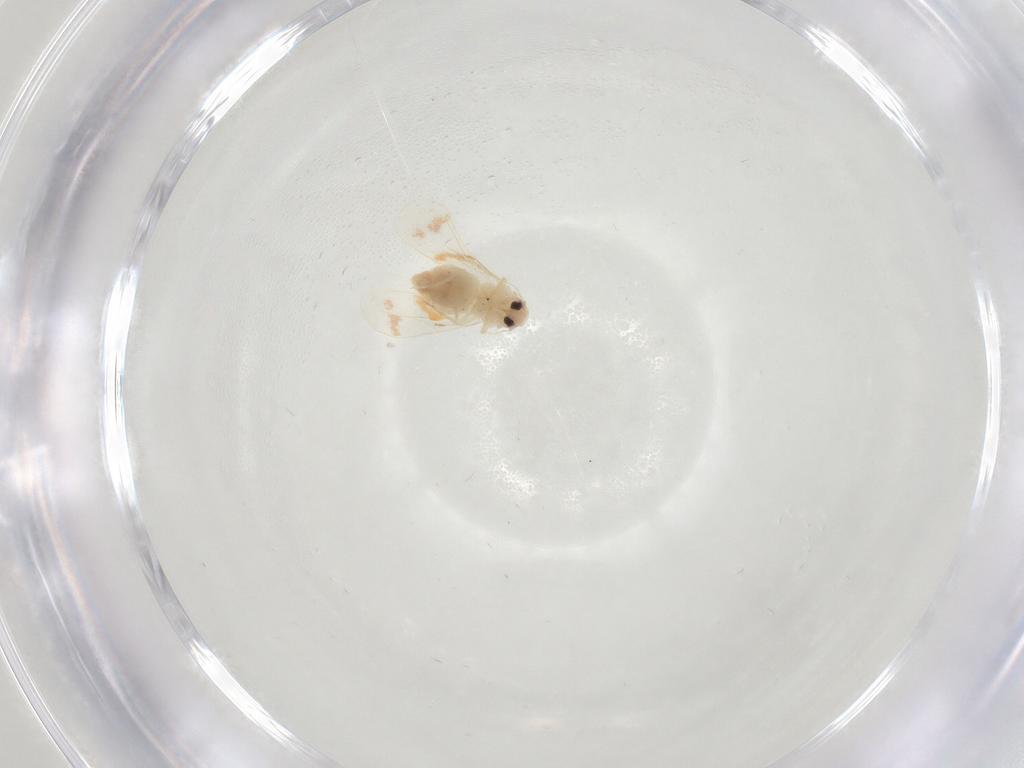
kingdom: Animalia
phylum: Arthropoda
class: Insecta
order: Hemiptera
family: Aleyrodidae
